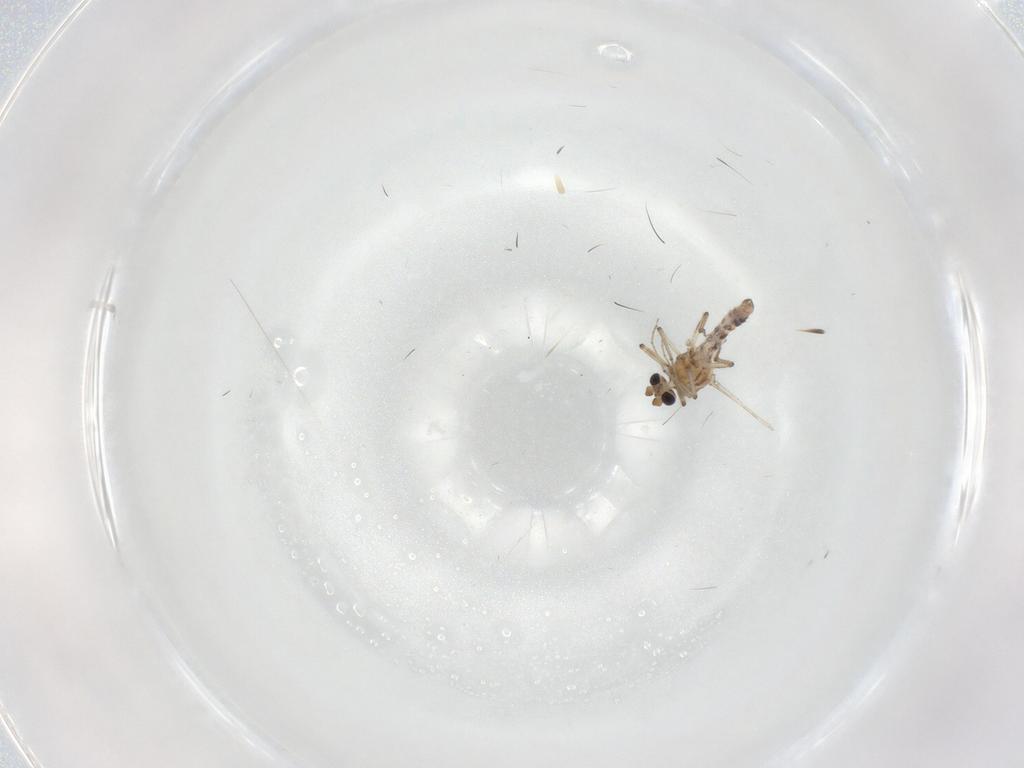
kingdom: Animalia
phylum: Arthropoda
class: Insecta
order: Diptera
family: Ceratopogonidae
